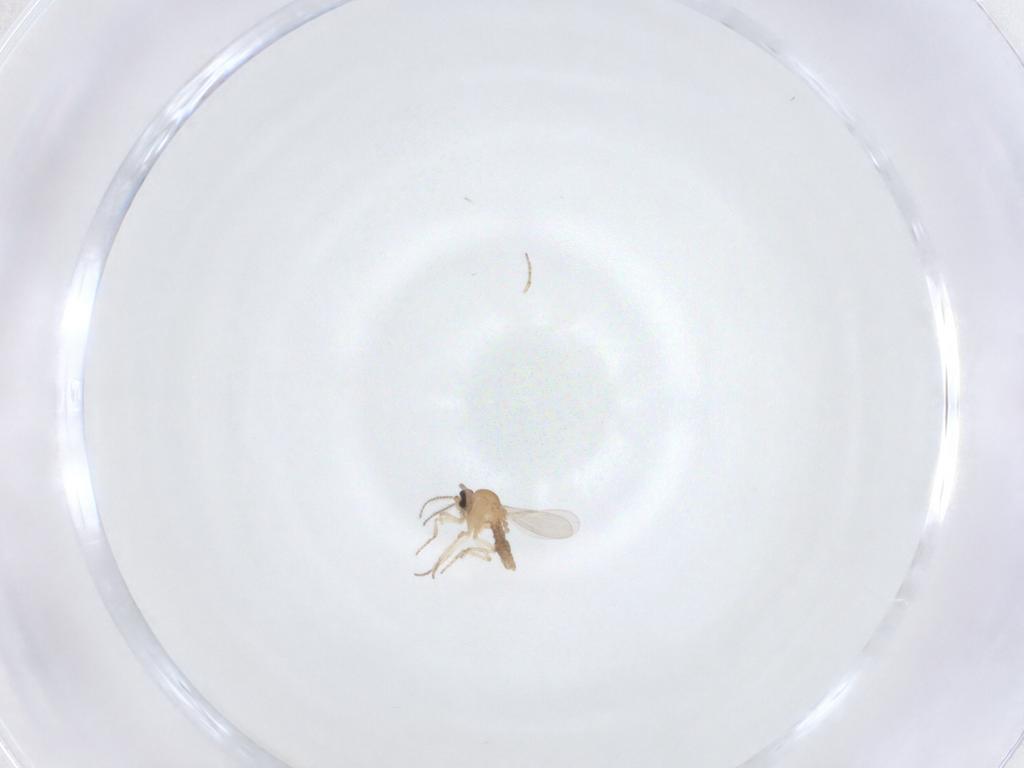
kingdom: Animalia
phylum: Arthropoda
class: Insecta
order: Diptera
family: Ceratopogonidae
